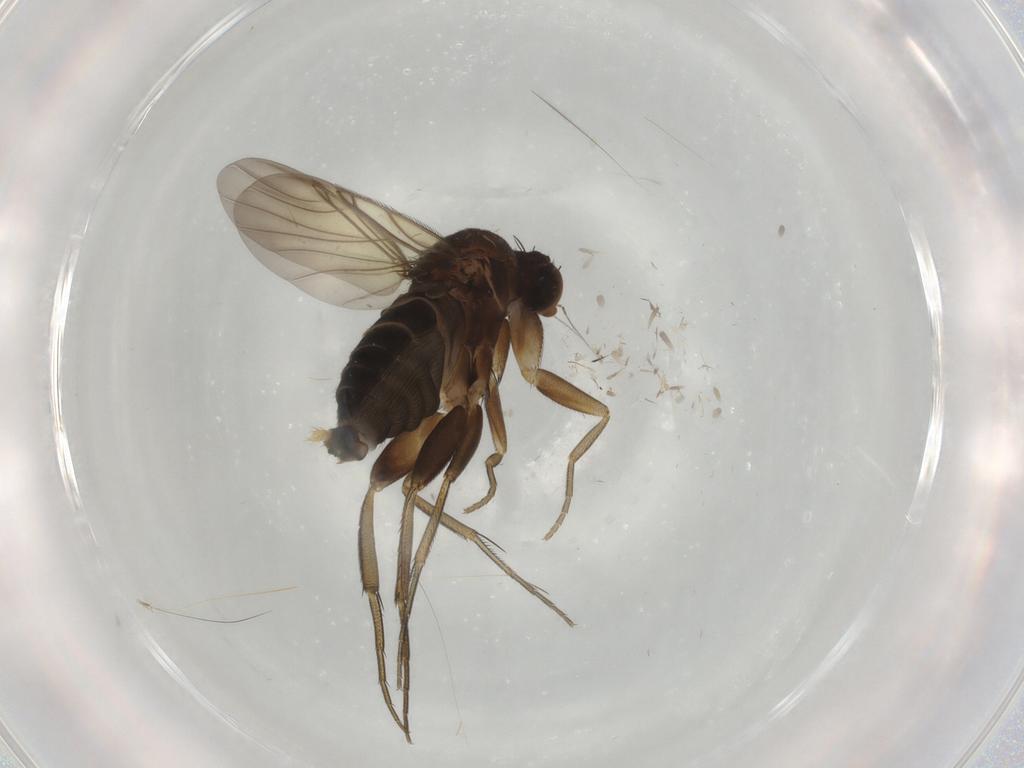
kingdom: Animalia
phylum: Arthropoda
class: Insecta
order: Diptera
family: Phoridae
